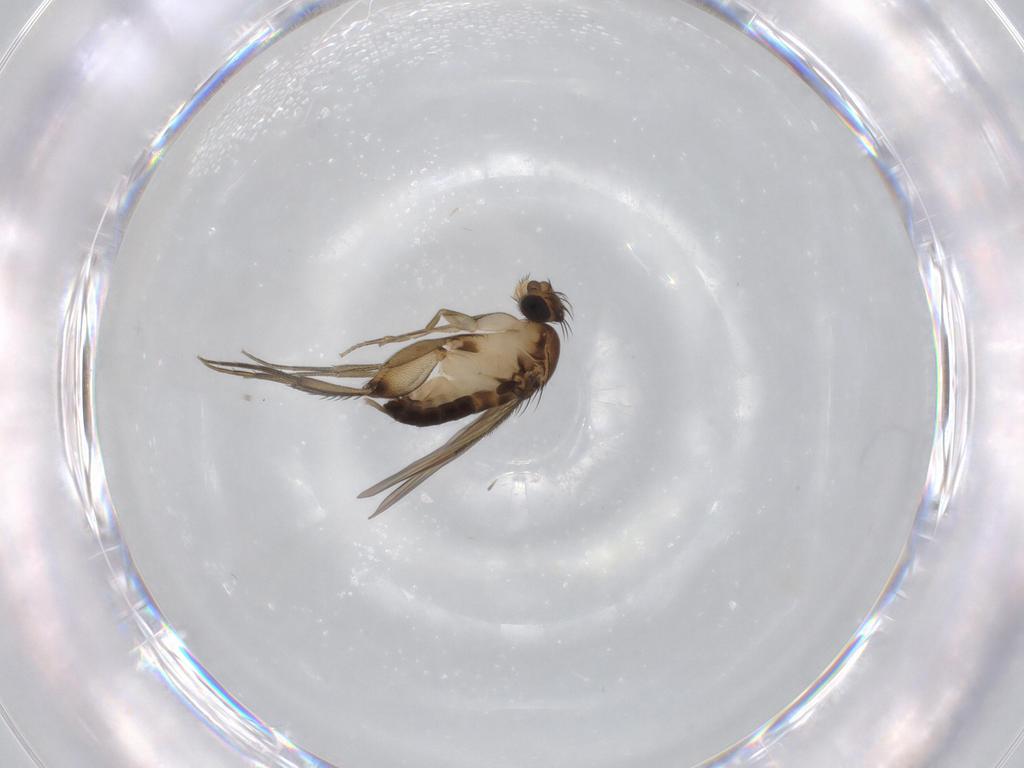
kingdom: Animalia
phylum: Arthropoda
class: Insecta
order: Diptera
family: Phoridae
